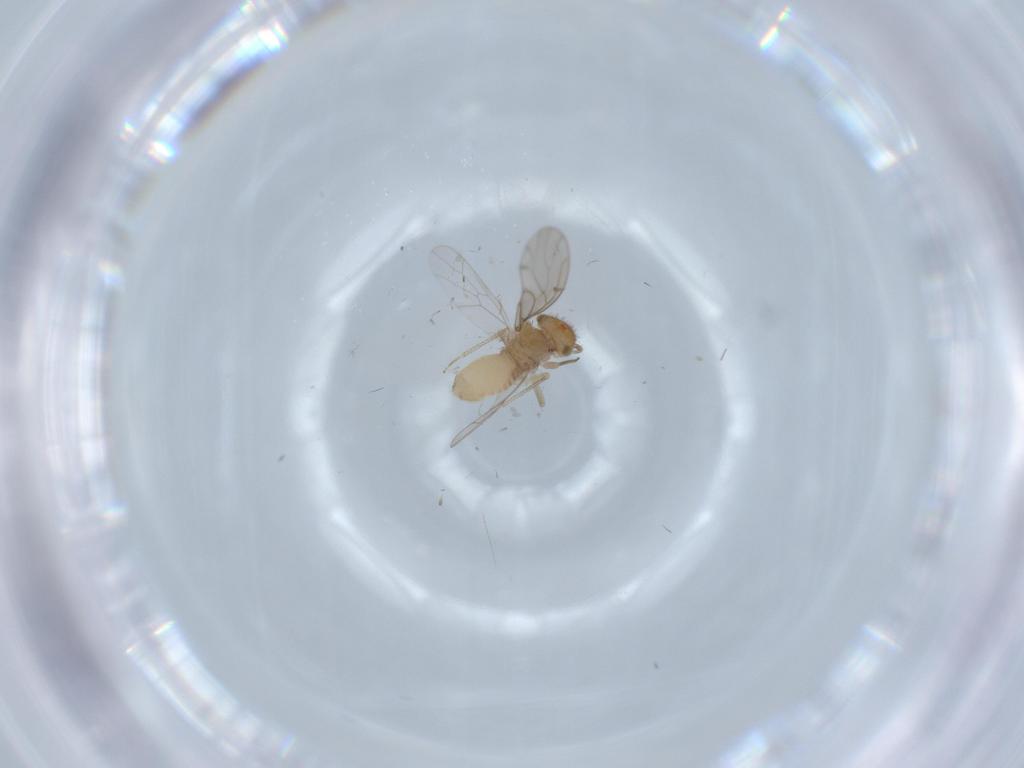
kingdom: Animalia
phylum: Arthropoda
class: Insecta
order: Psocodea
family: Ectopsocidae
